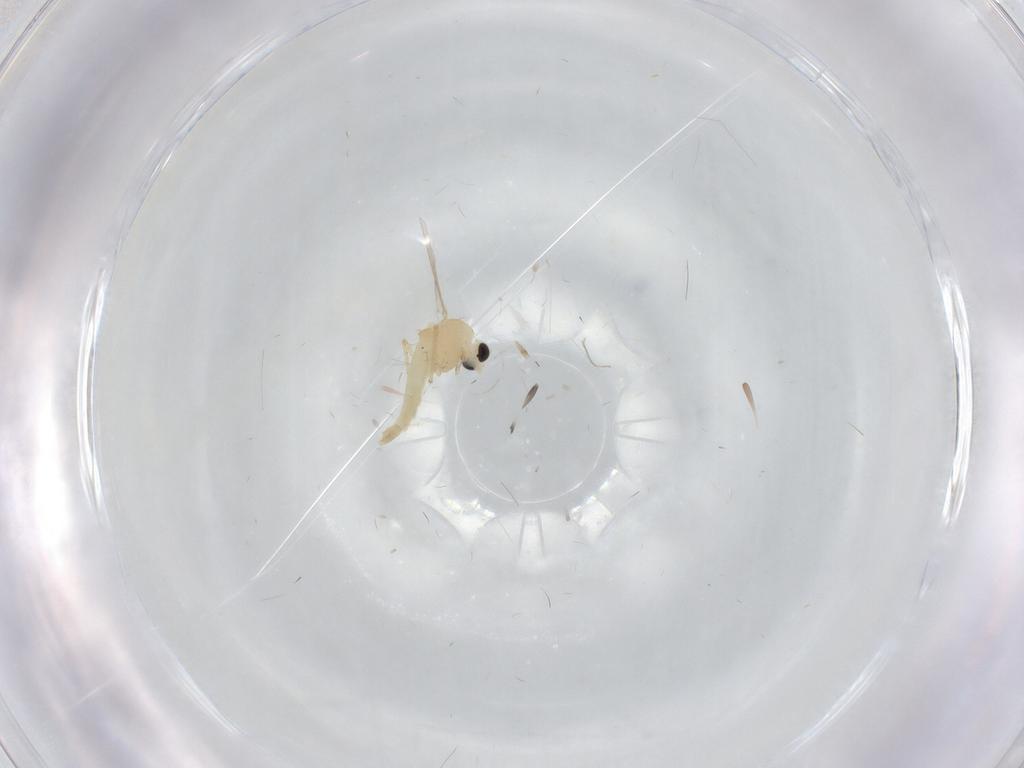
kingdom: Animalia
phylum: Arthropoda
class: Insecta
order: Diptera
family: Chironomidae
